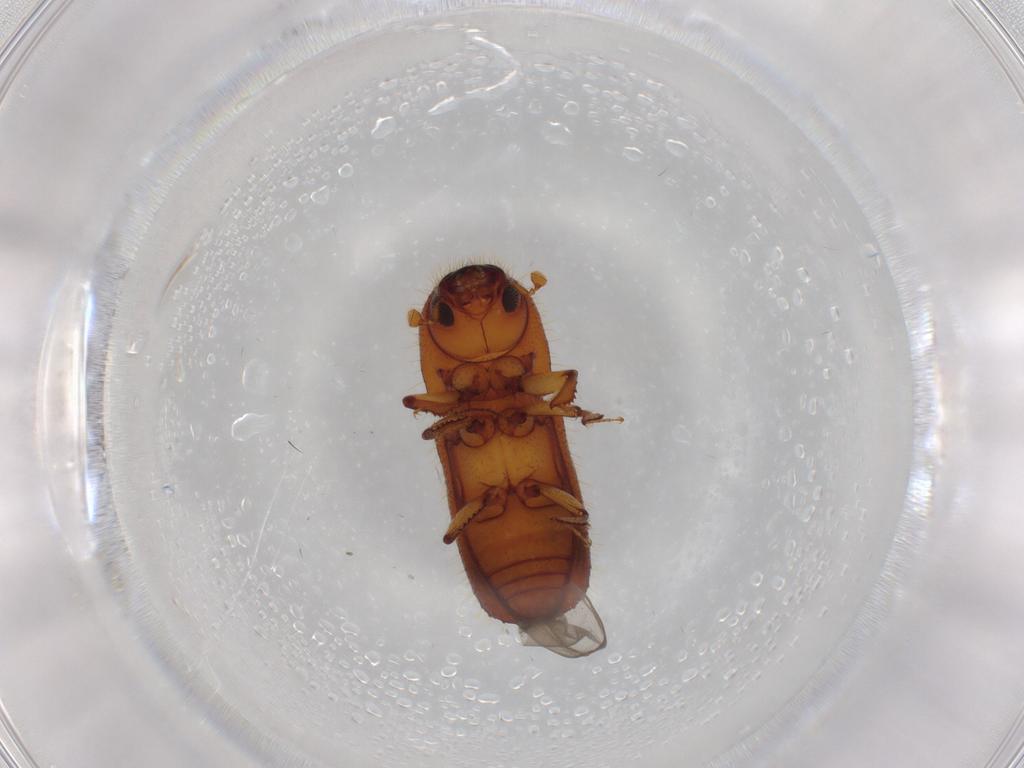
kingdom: Animalia
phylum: Arthropoda
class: Insecta
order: Coleoptera
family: Curculionidae
